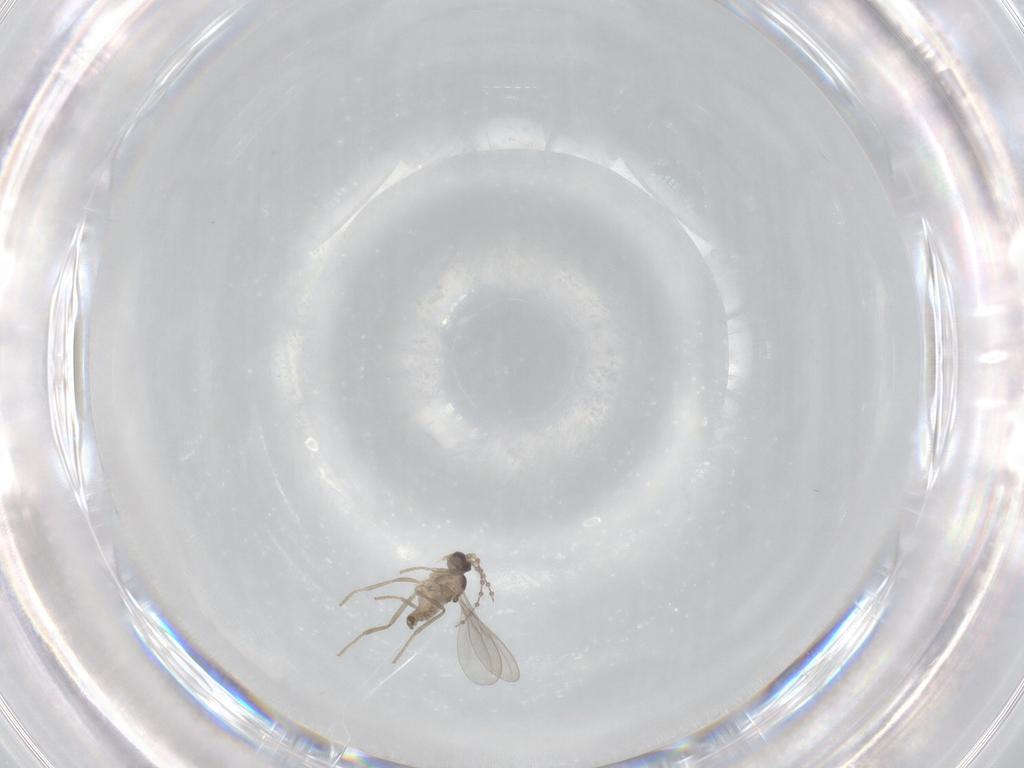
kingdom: Animalia
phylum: Arthropoda
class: Insecta
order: Diptera
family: Cecidomyiidae
